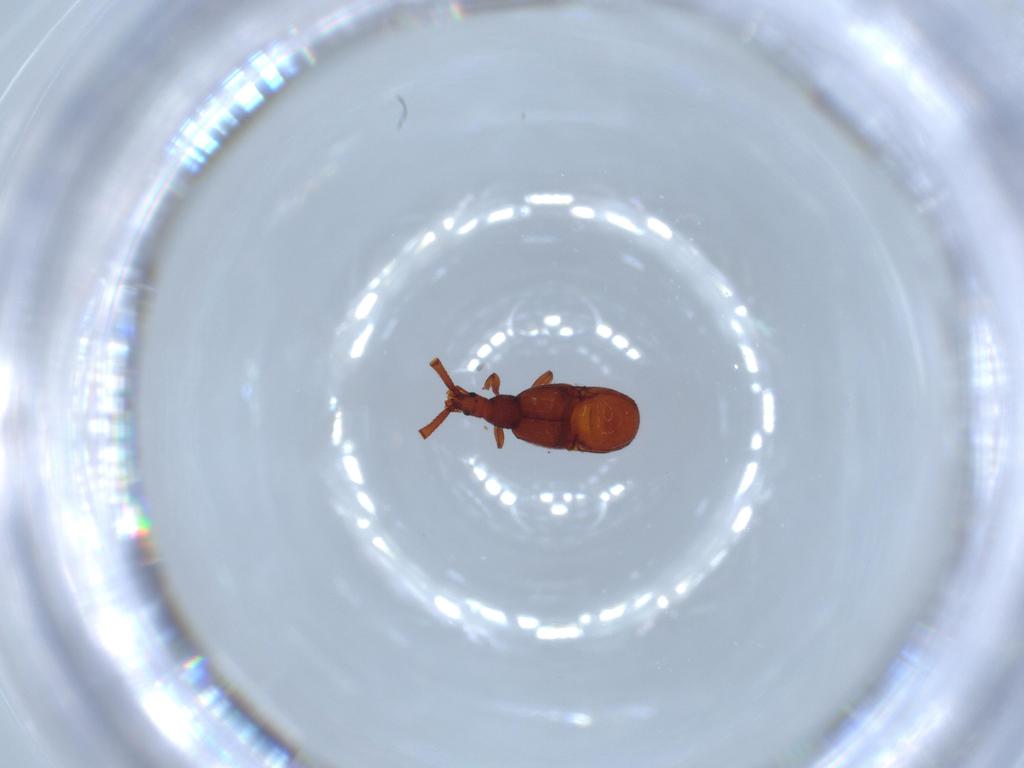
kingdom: Animalia
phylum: Arthropoda
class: Insecta
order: Coleoptera
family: Staphylinidae
